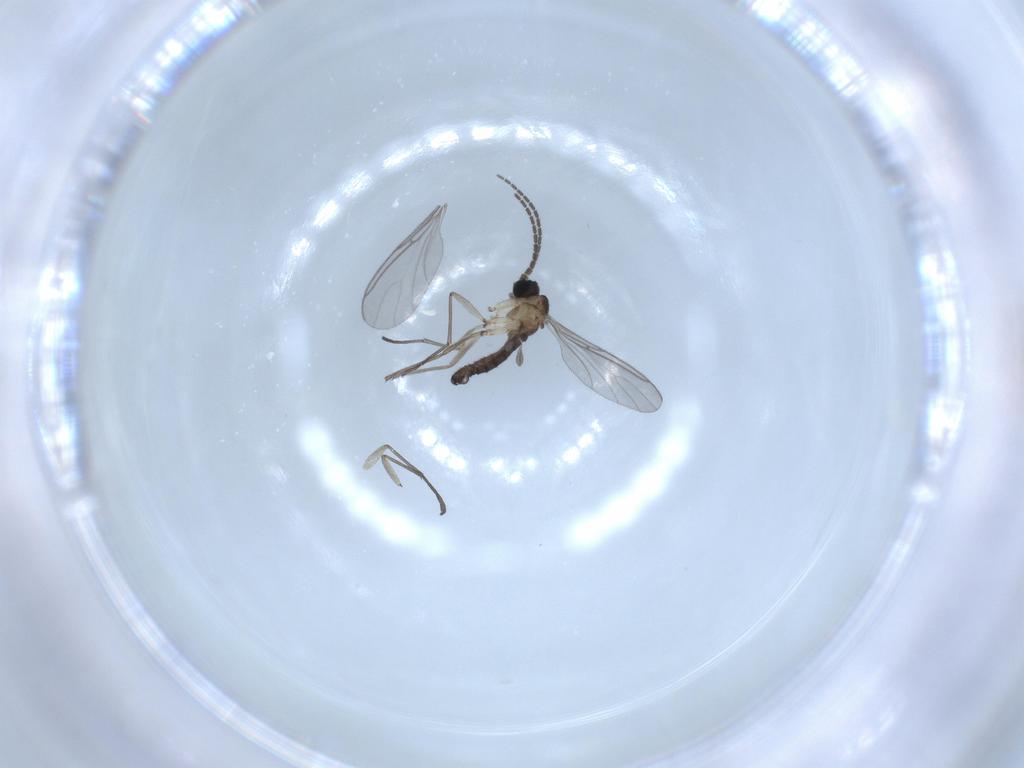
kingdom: Animalia
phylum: Arthropoda
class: Insecta
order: Diptera
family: Sciaridae
